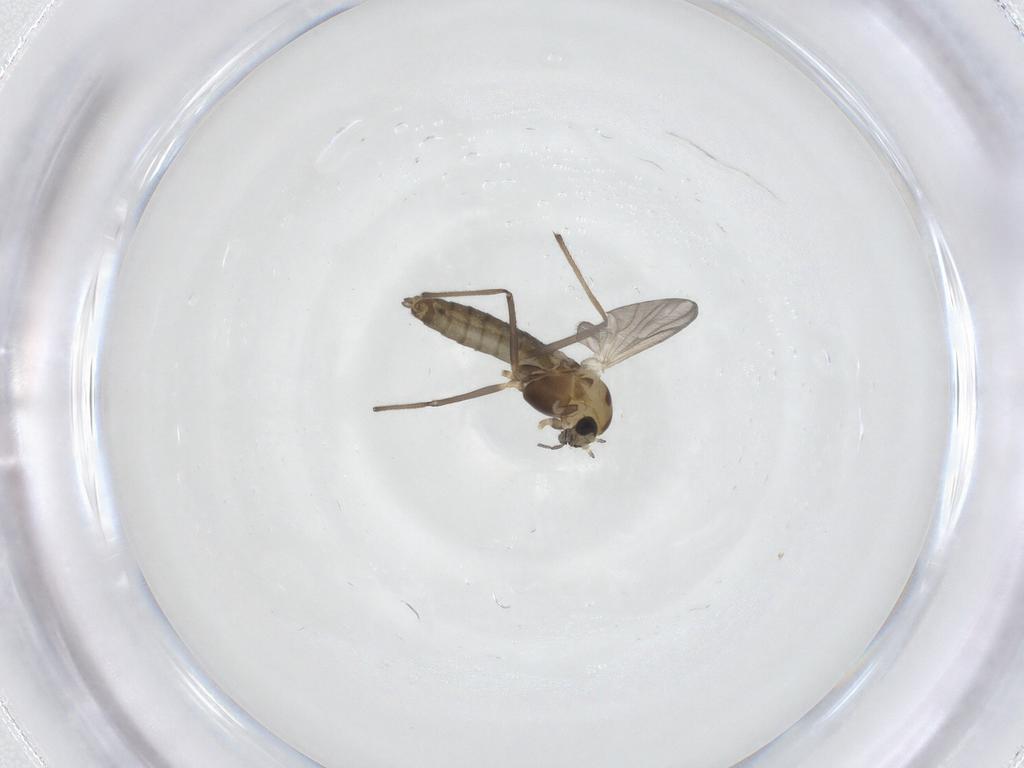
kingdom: Animalia
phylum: Arthropoda
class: Insecta
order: Diptera
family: Chironomidae
